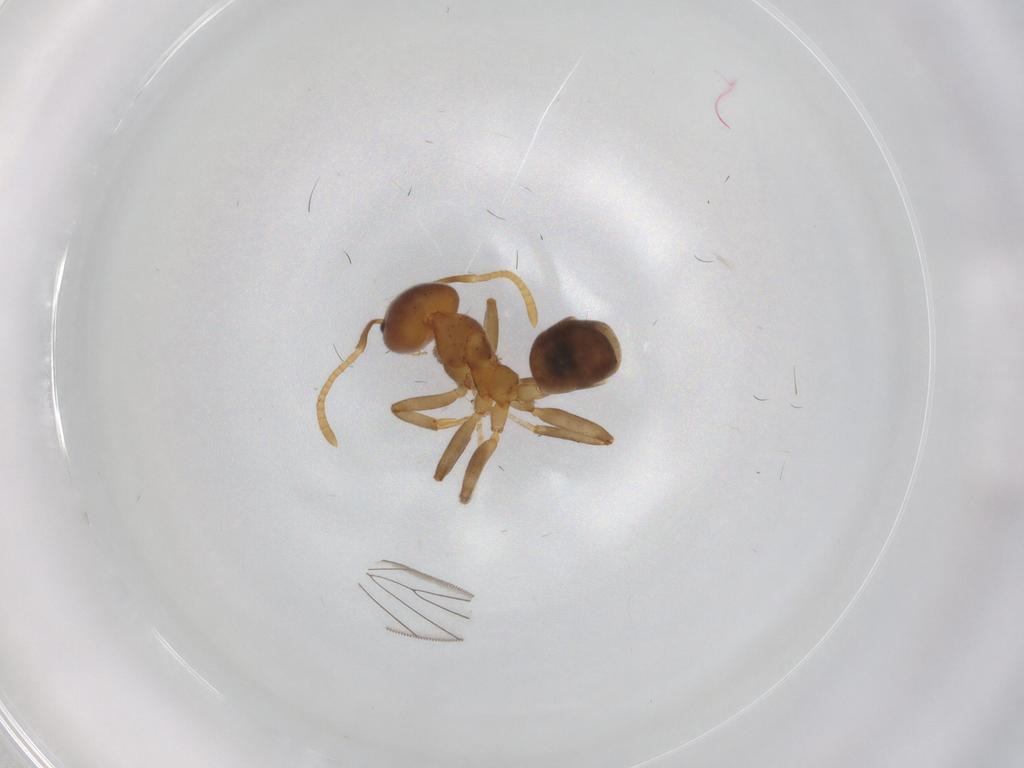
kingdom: Animalia
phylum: Arthropoda
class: Insecta
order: Hymenoptera
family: Formicidae
